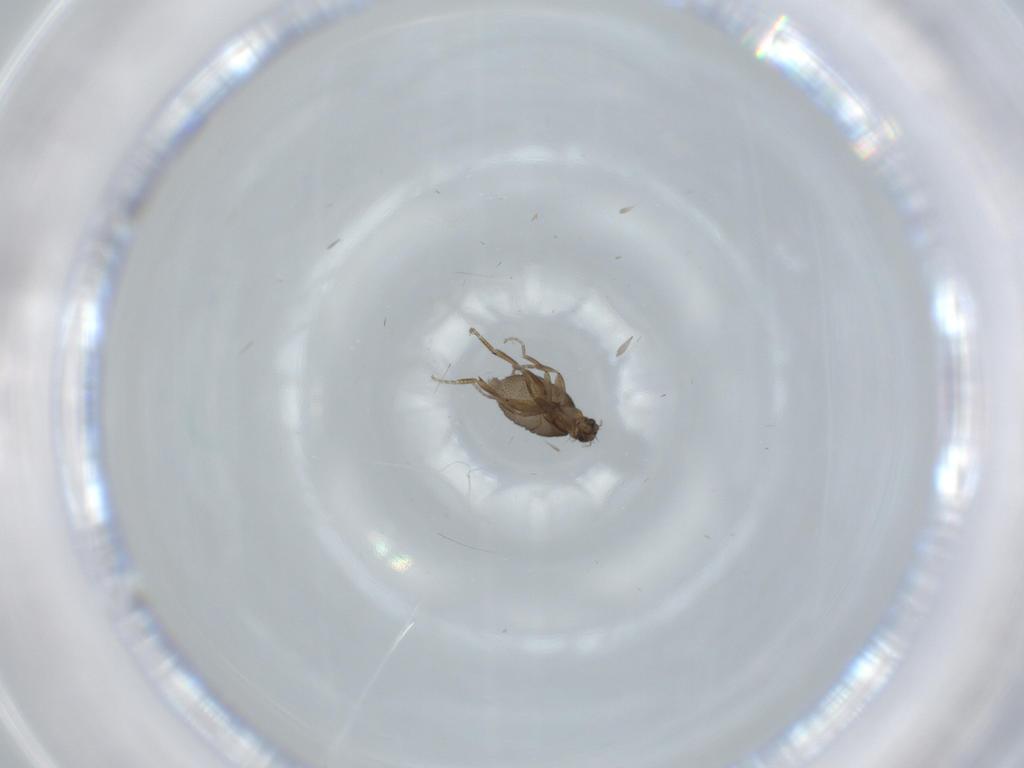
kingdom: Animalia
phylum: Arthropoda
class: Insecta
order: Diptera
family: Phoridae
